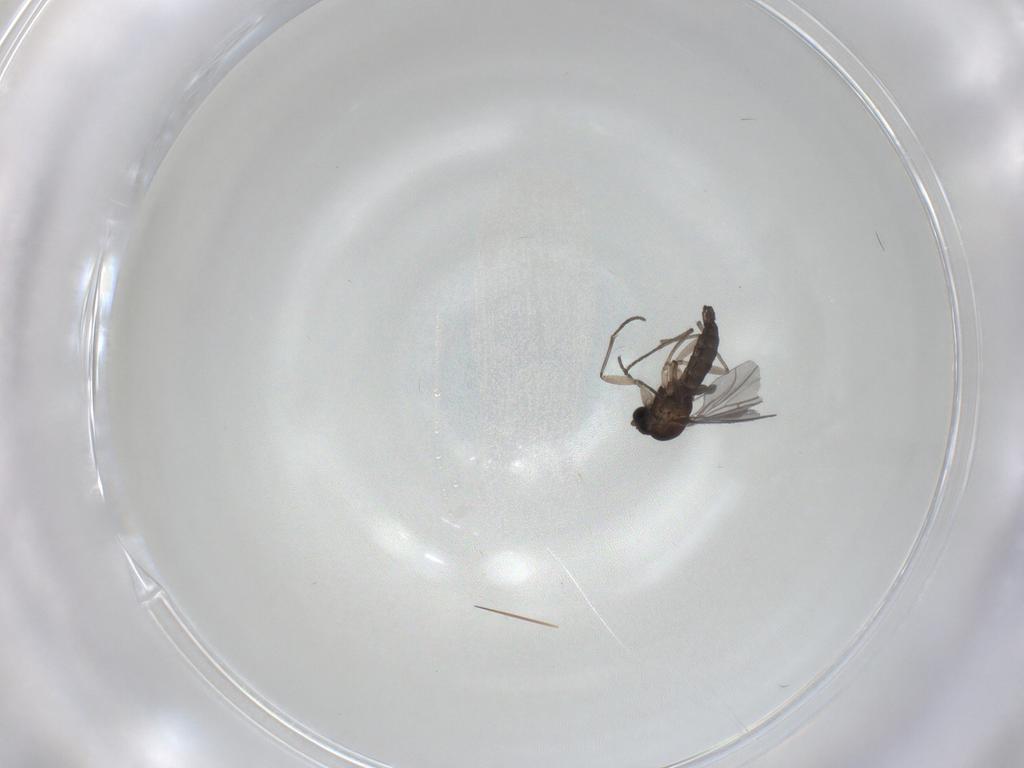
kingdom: Animalia
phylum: Arthropoda
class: Insecta
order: Diptera
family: Sciaridae
